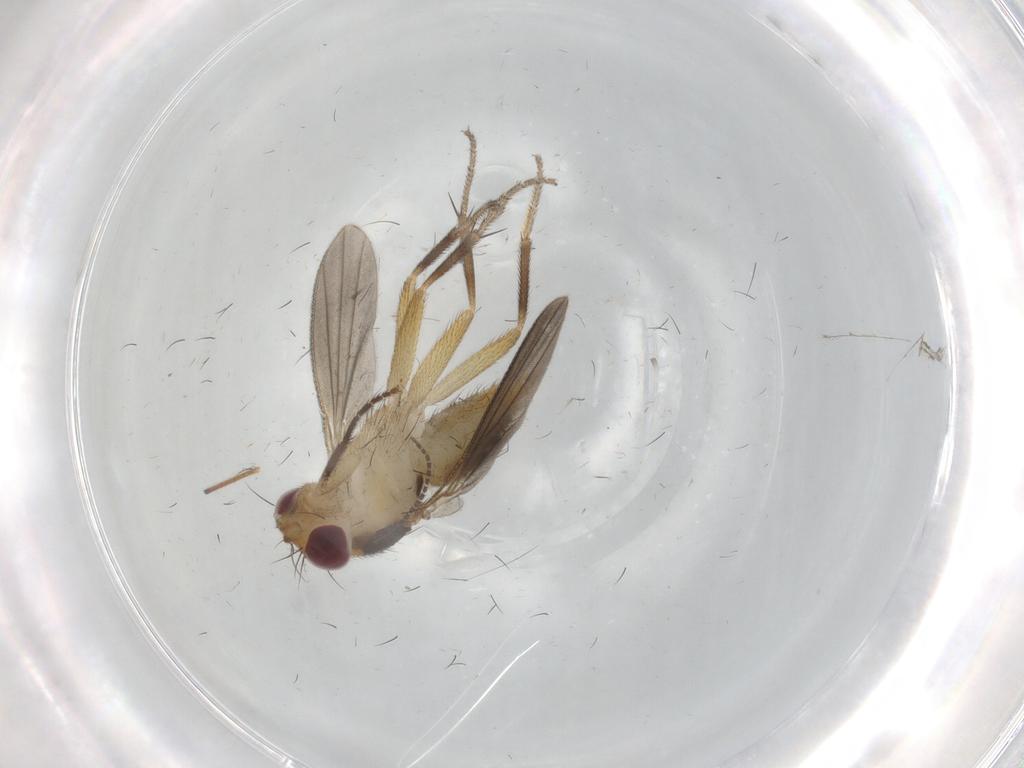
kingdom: Animalia
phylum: Arthropoda
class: Insecta
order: Diptera
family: Clusiidae
